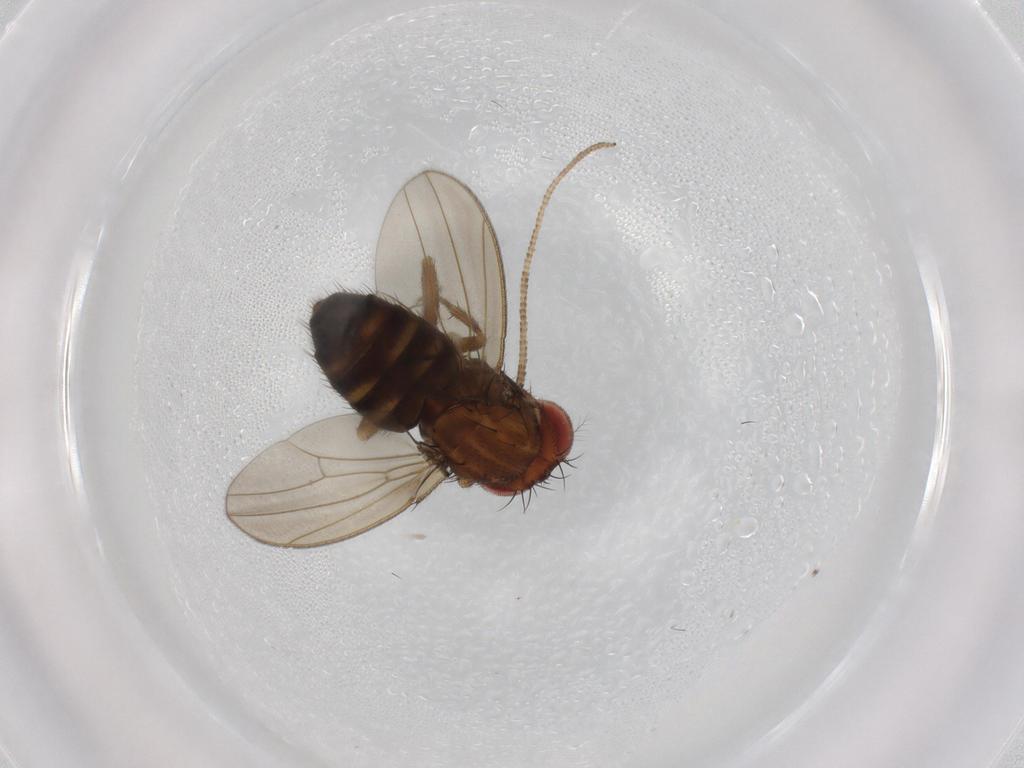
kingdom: Animalia
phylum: Arthropoda
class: Insecta
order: Diptera
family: Drosophilidae
